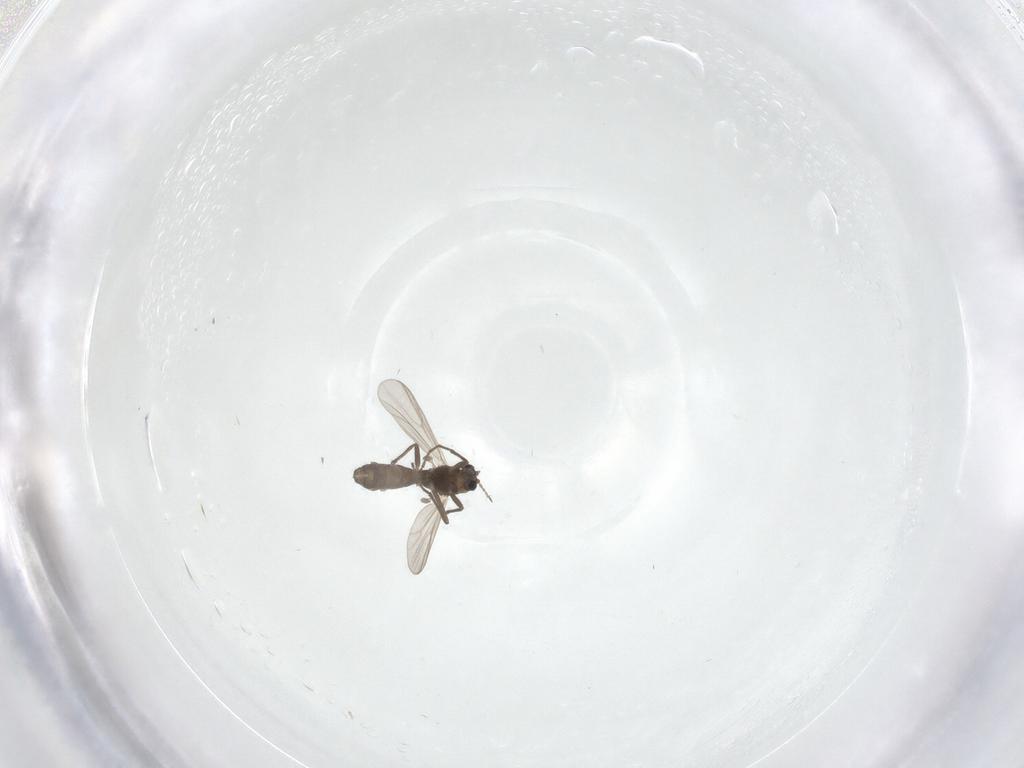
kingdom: Animalia
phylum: Arthropoda
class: Insecta
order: Diptera
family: Chironomidae
